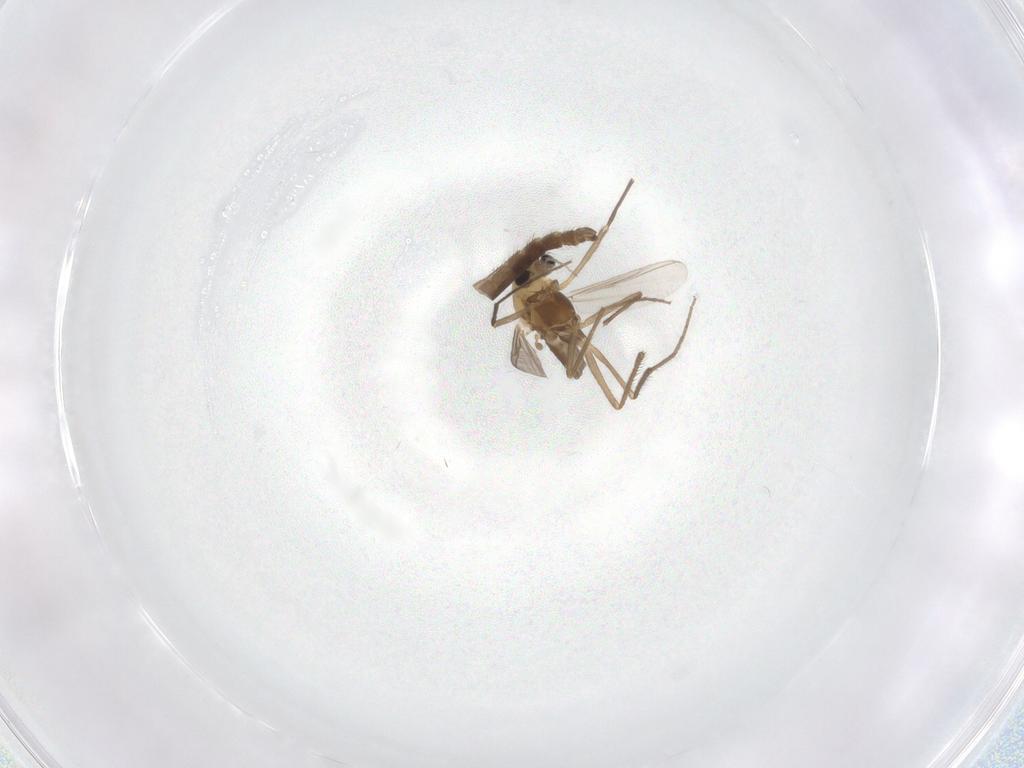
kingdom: Animalia
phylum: Arthropoda
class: Insecta
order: Diptera
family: Chironomidae
